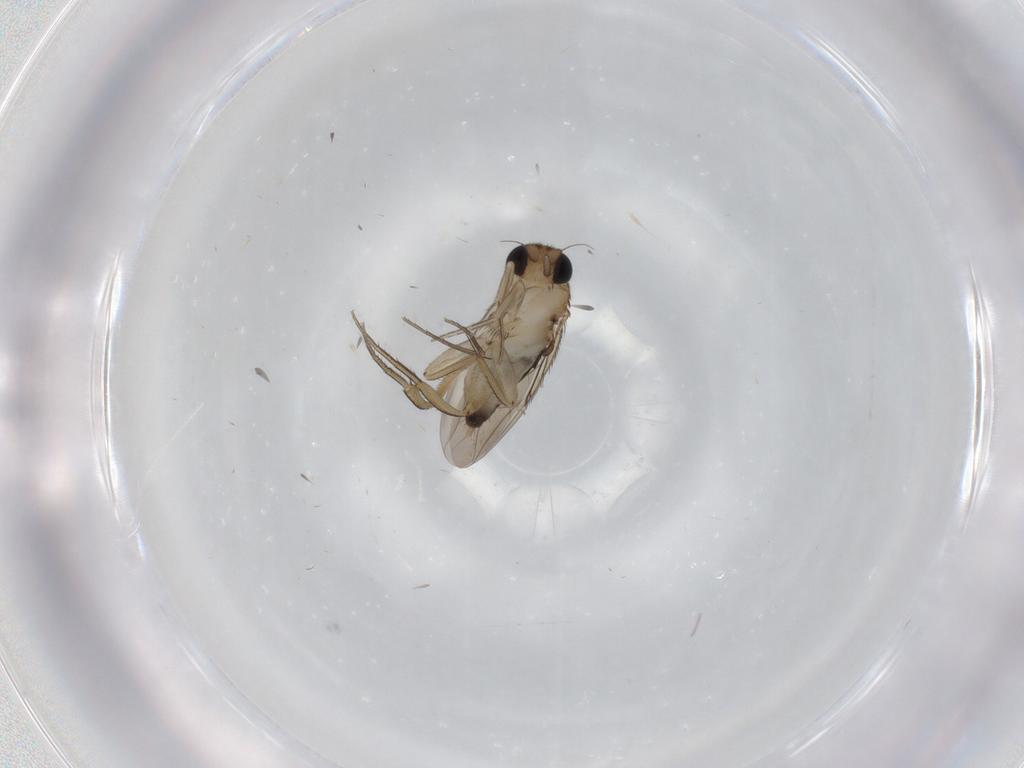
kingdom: Animalia
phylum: Arthropoda
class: Insecta
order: Diptera
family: Phoridae
